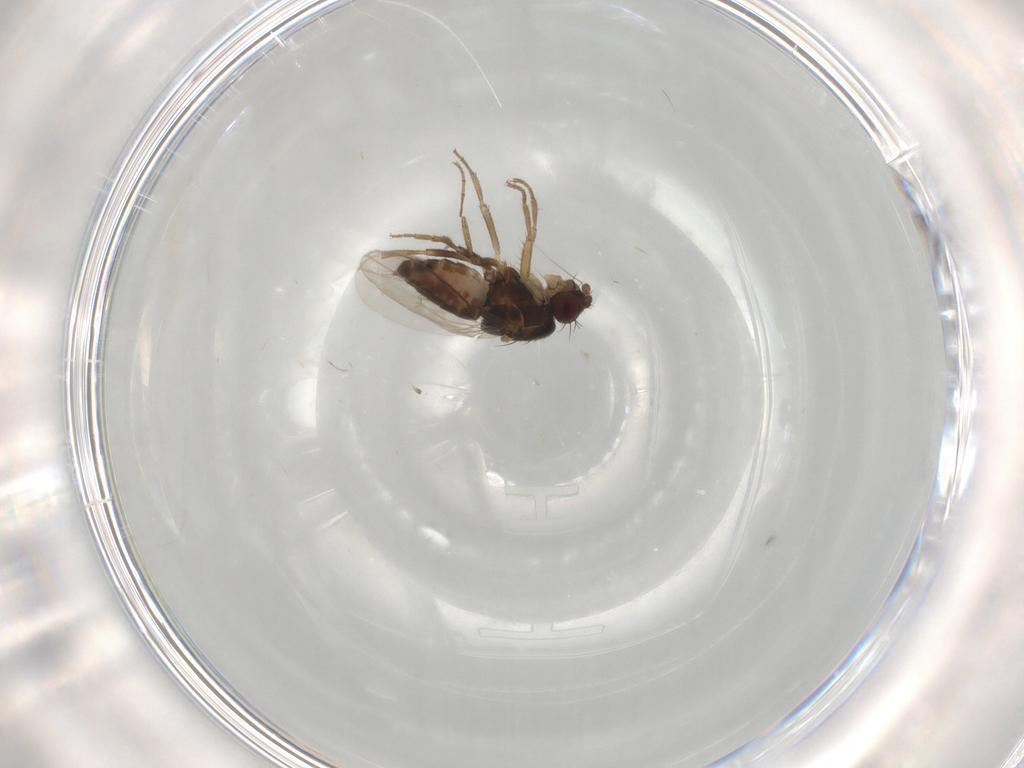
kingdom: Animalia
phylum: Arthropoda
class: Insecta
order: Diptera
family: Sphaeroceridae
